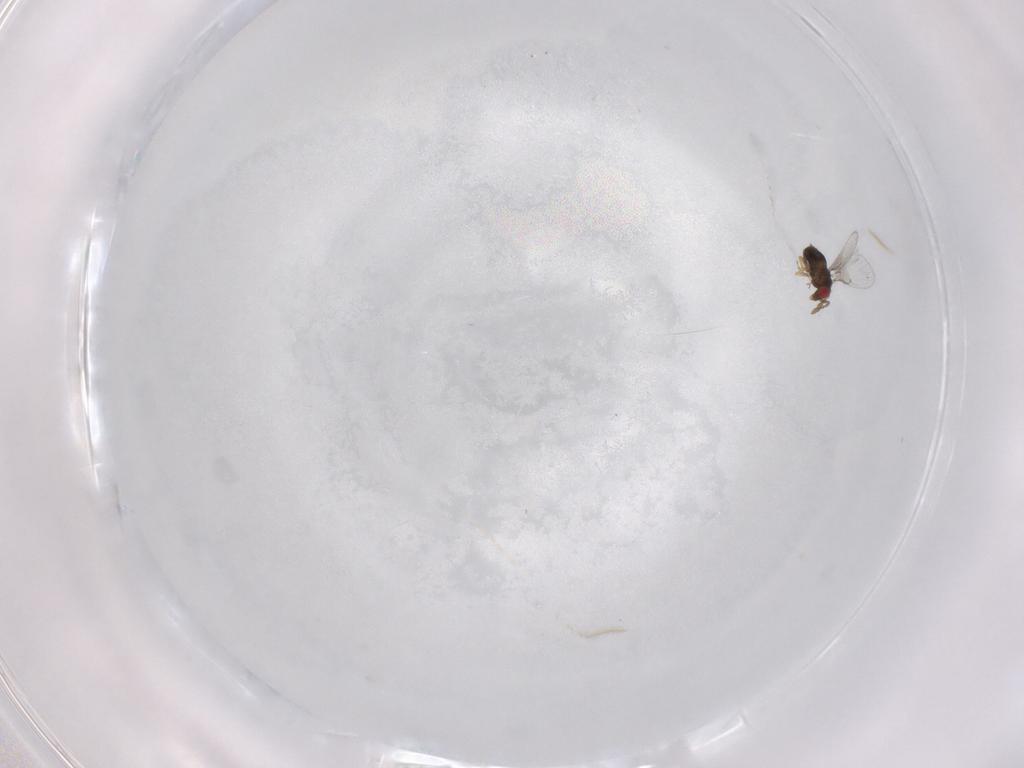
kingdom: Animalia
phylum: Arthropoda
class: Insecta
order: Hymenoptera
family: Trichogrammatidae
